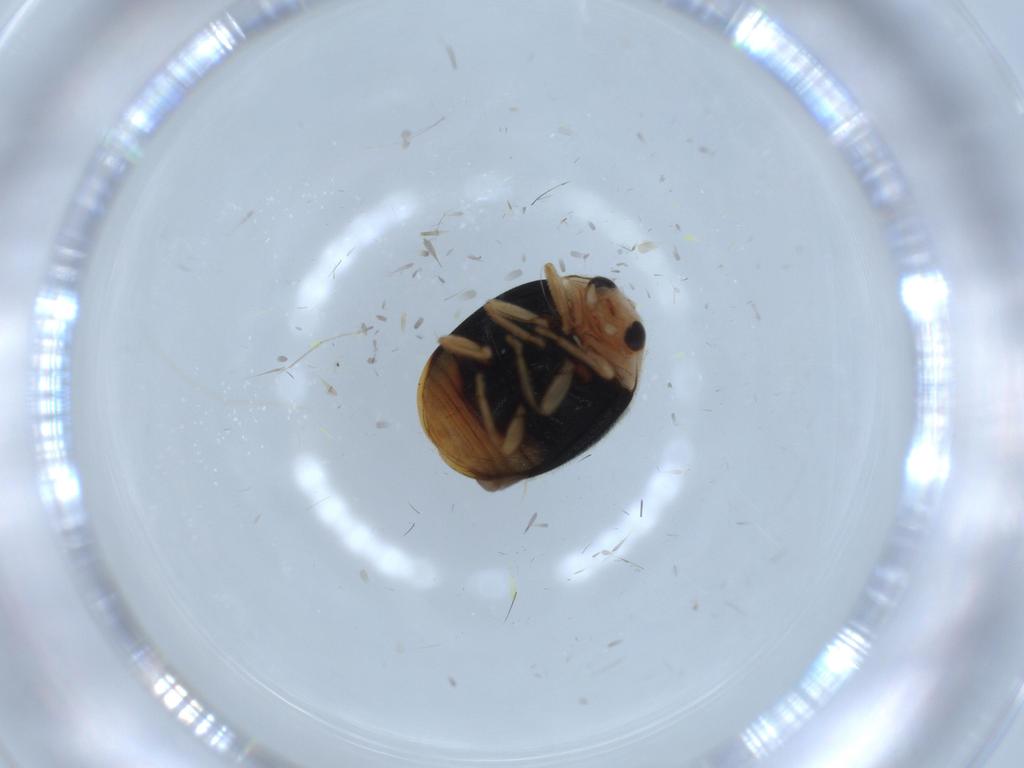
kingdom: Animalia
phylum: Arthropoda
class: Insecta
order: Coleoptera
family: Coccinellidae
